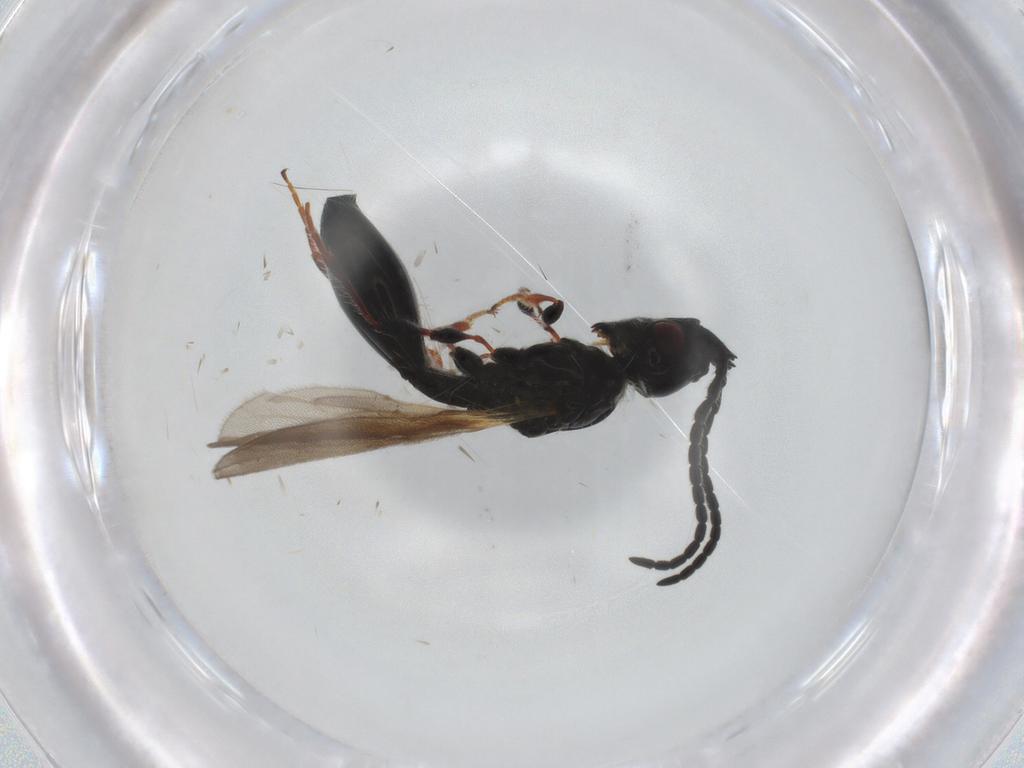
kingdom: Animalia
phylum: Arthropoda
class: Insecta
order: Hymenoptera
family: Diapriidae
